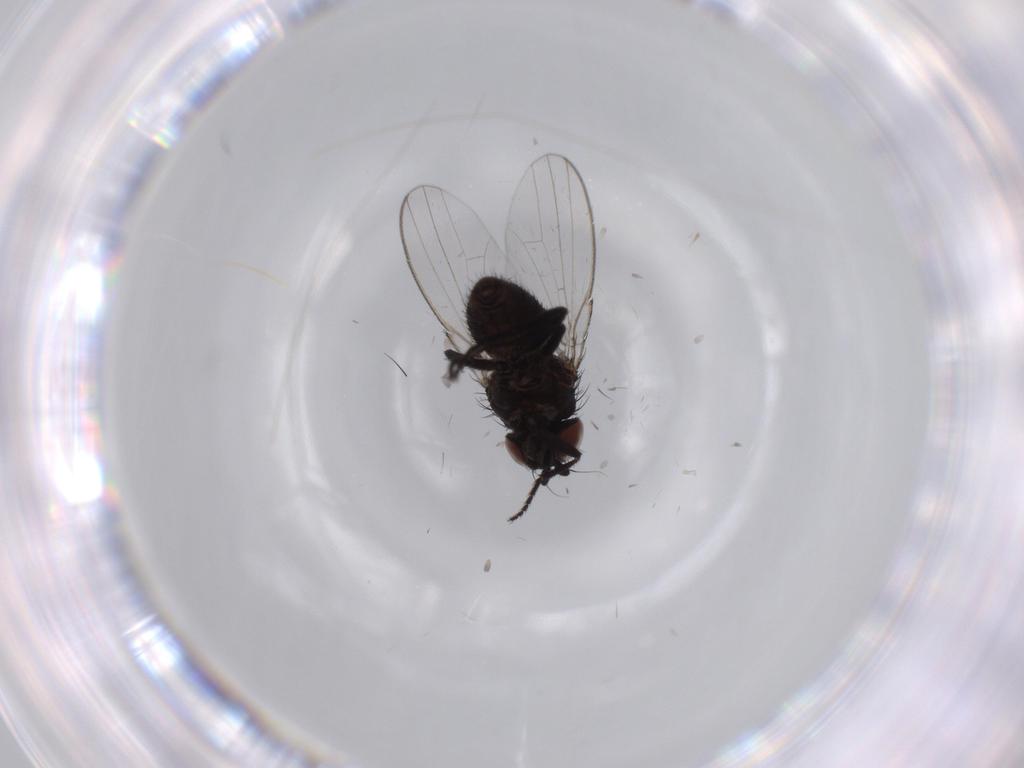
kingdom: Animalia
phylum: Arthropoda
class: Insecta
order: Diptera
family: Milichiidae
